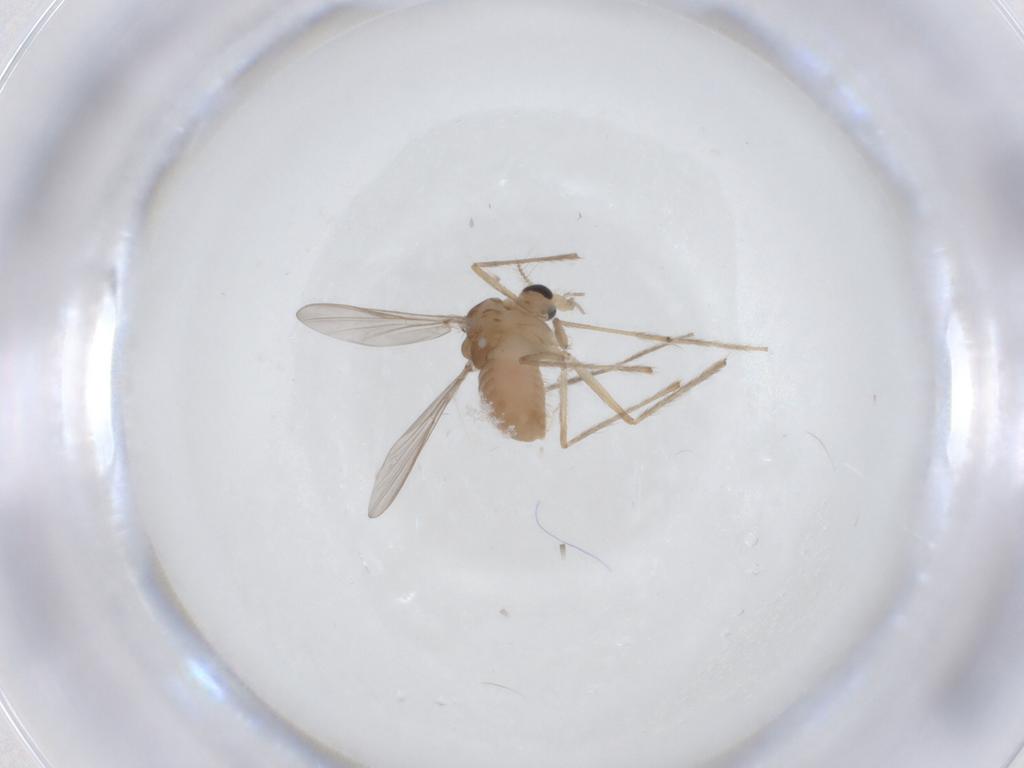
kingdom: Animalia
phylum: Arthropoda
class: Insecta
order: Diptera
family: Chironomidae
